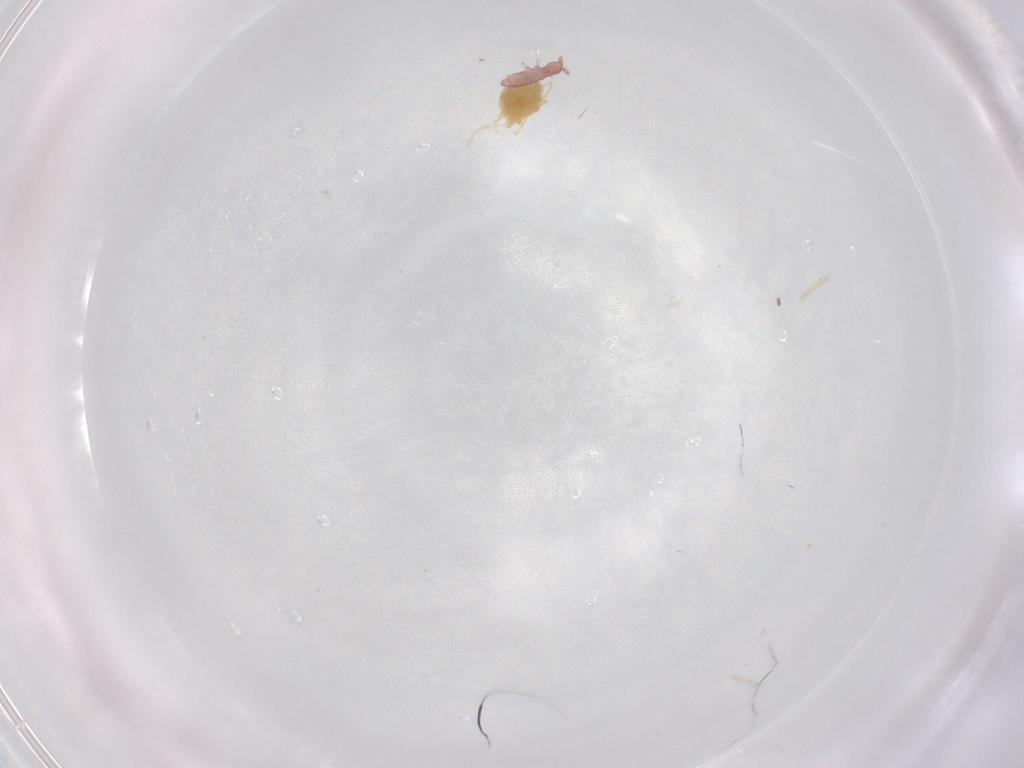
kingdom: Animalia
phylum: Arthropoda
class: Collembola
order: Poduromorpha
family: Hypogastruridae
